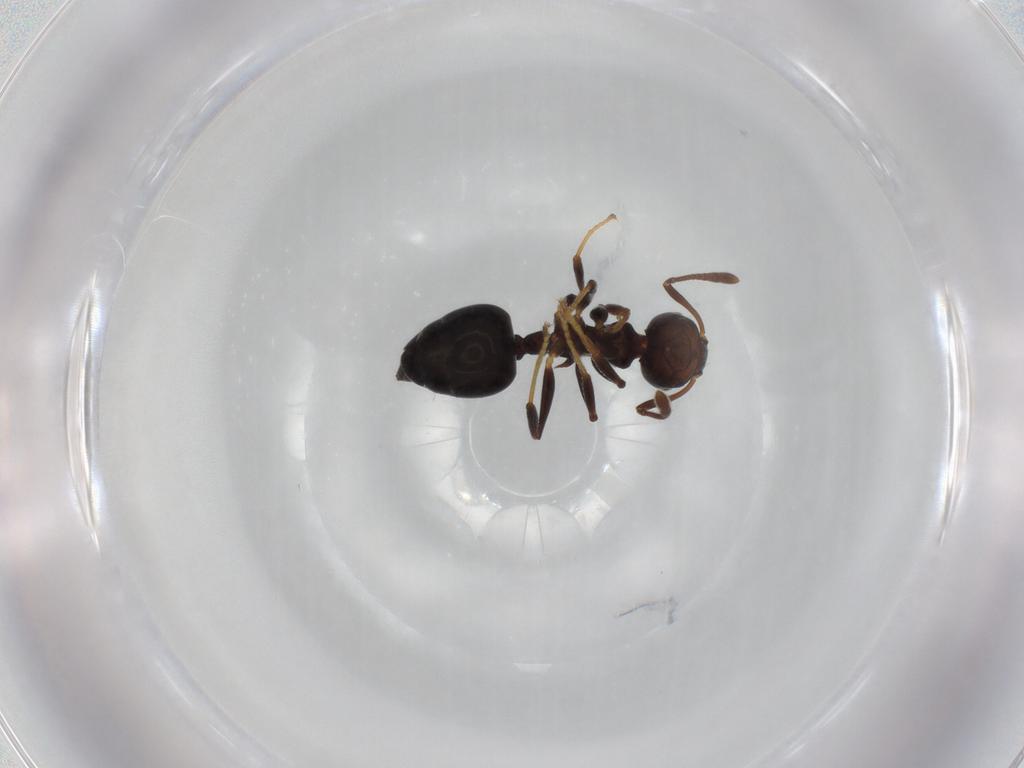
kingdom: Animalia
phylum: Arthropoda
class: Insecta
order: Hymenoptera
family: Formicidae
